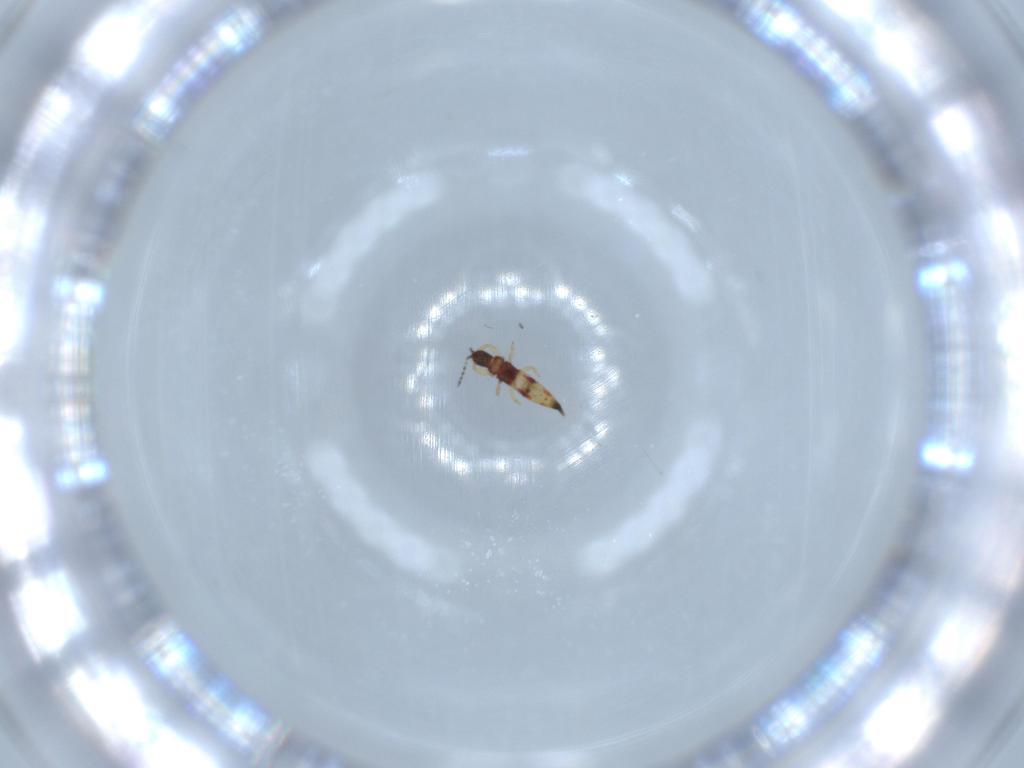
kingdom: Animalia
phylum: Arthropoda
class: Insecta
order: Thysanoptera
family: Phlaeothripidae
